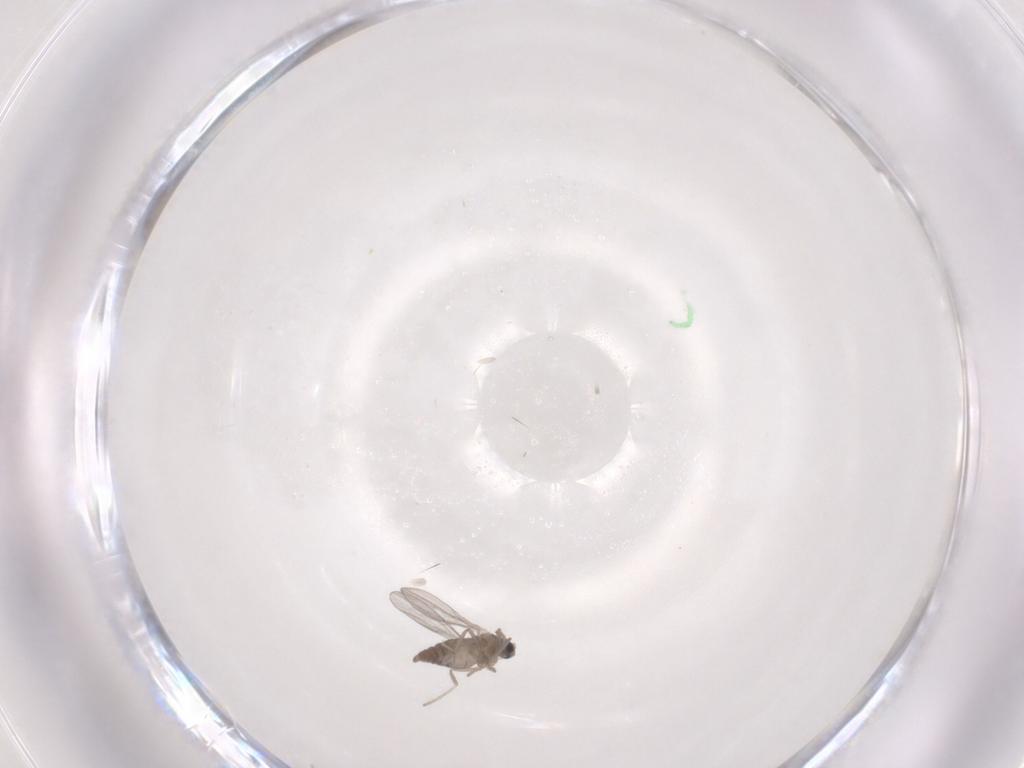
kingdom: Animalia
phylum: Arthropoda
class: Insecta
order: Diptera
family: Cecidomyiidae
